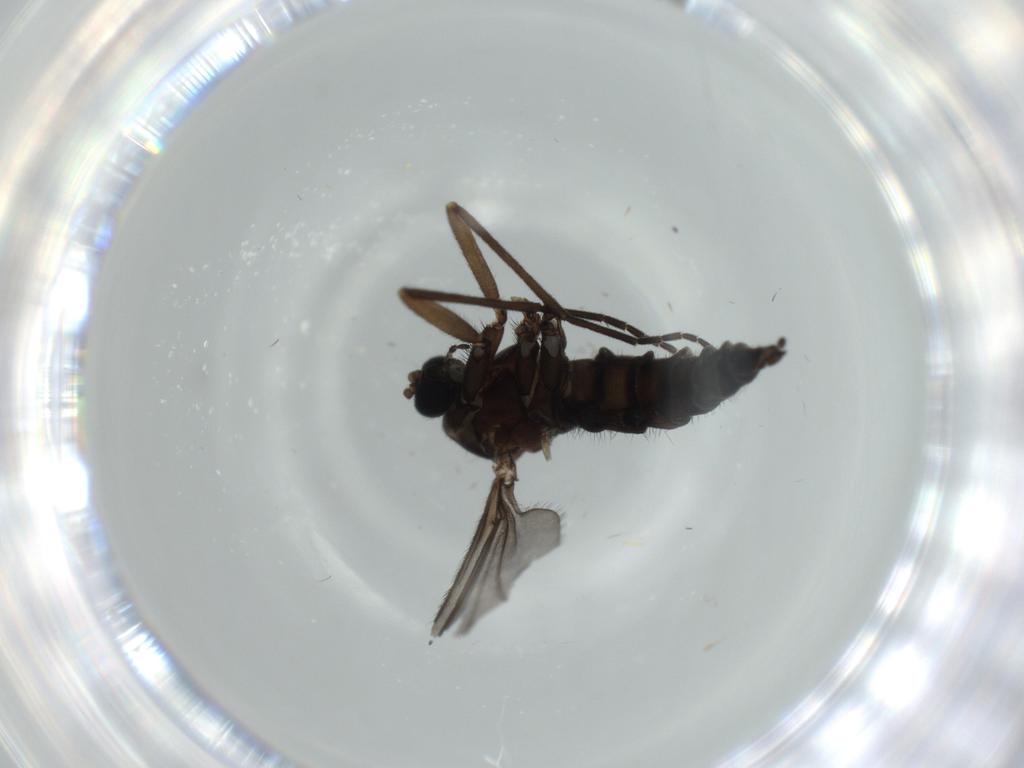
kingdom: Animalia
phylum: Arthropoda
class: Insecta
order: Diptera
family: Sciaridae
